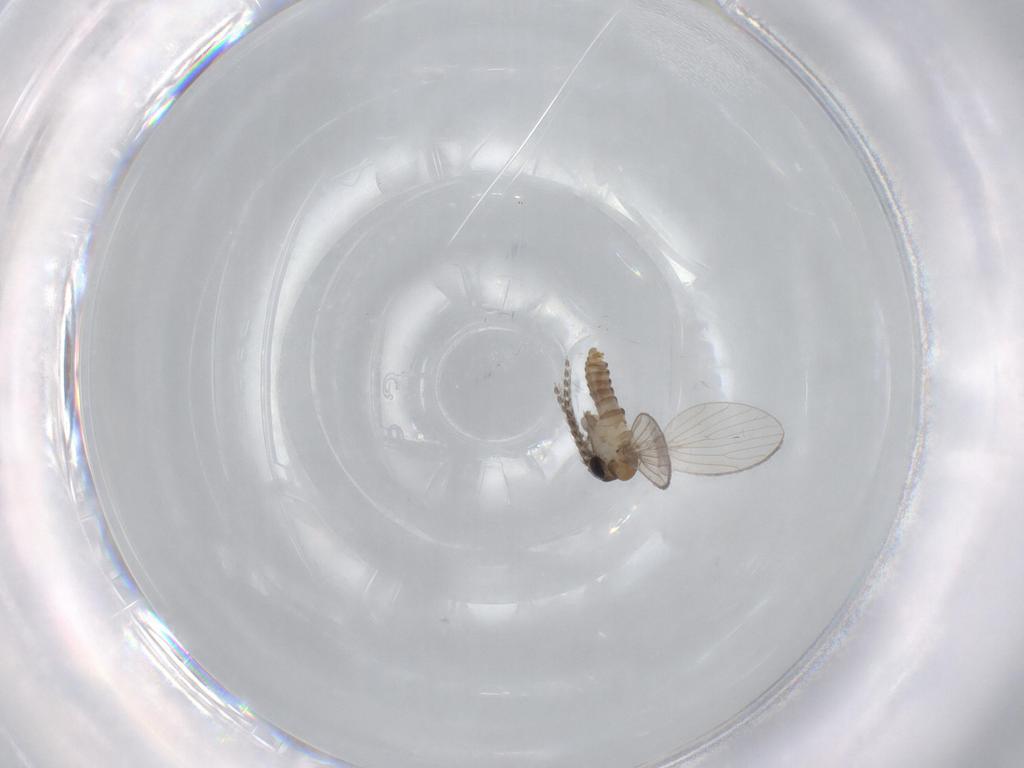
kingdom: Animalia
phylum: Arthropoda
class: Insecta
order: Diptera
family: Psychodidae
